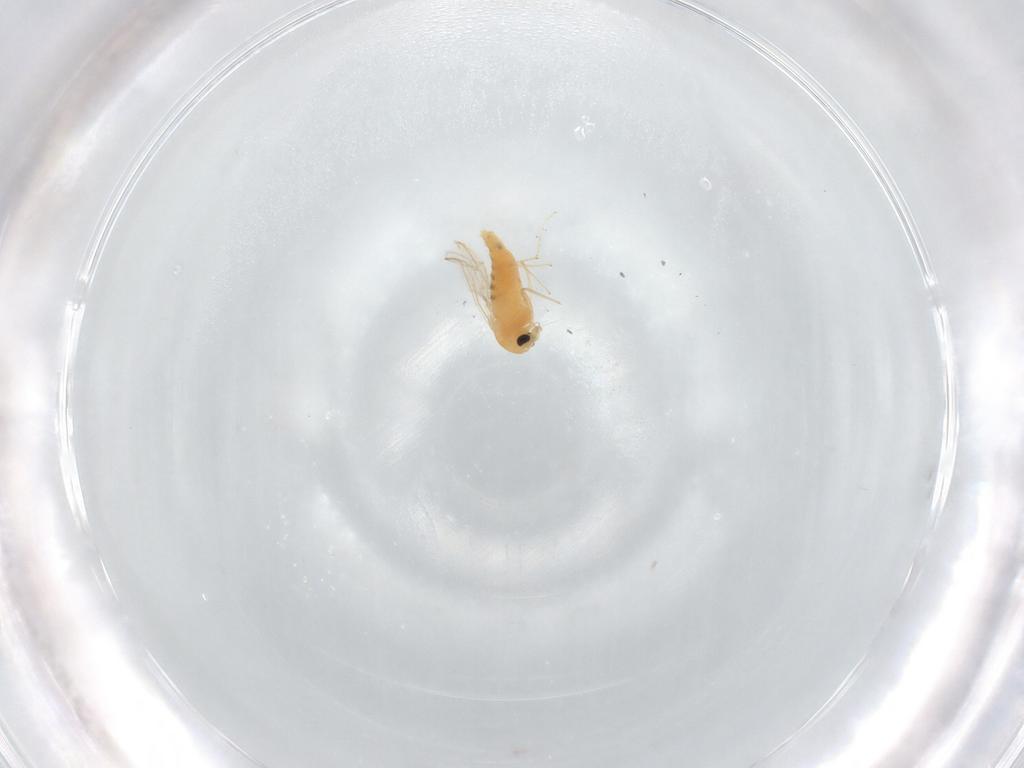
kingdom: Animalia
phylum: Arthropoda
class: Insecta
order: Diptera
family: Chironomidae
